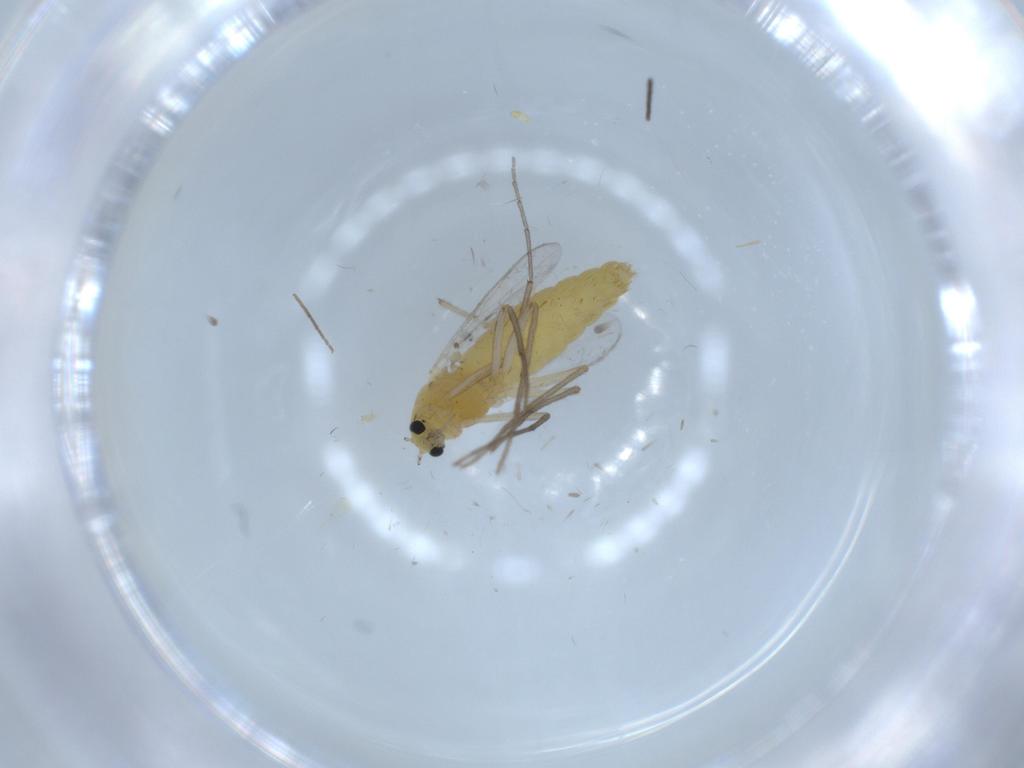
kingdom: Animalia
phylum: Arthropoda
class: Insecta
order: Diptera
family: Chironomidae
